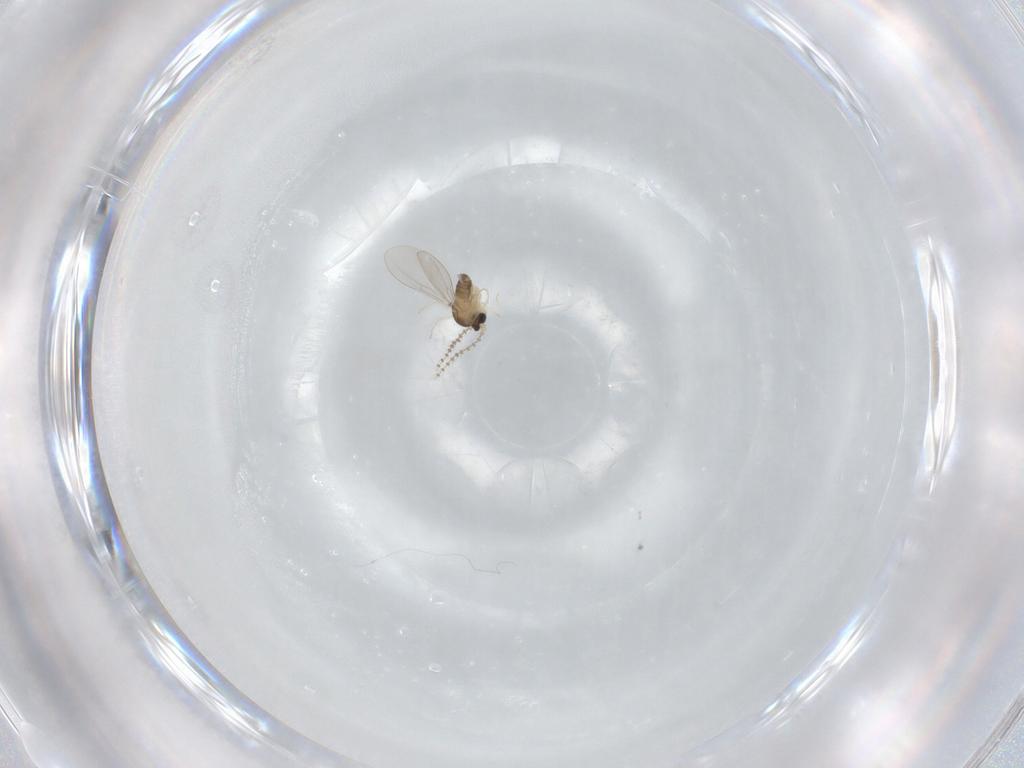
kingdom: Animalia
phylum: Arthropoda
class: Insecta
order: Diptera
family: Cecidomyiidae
